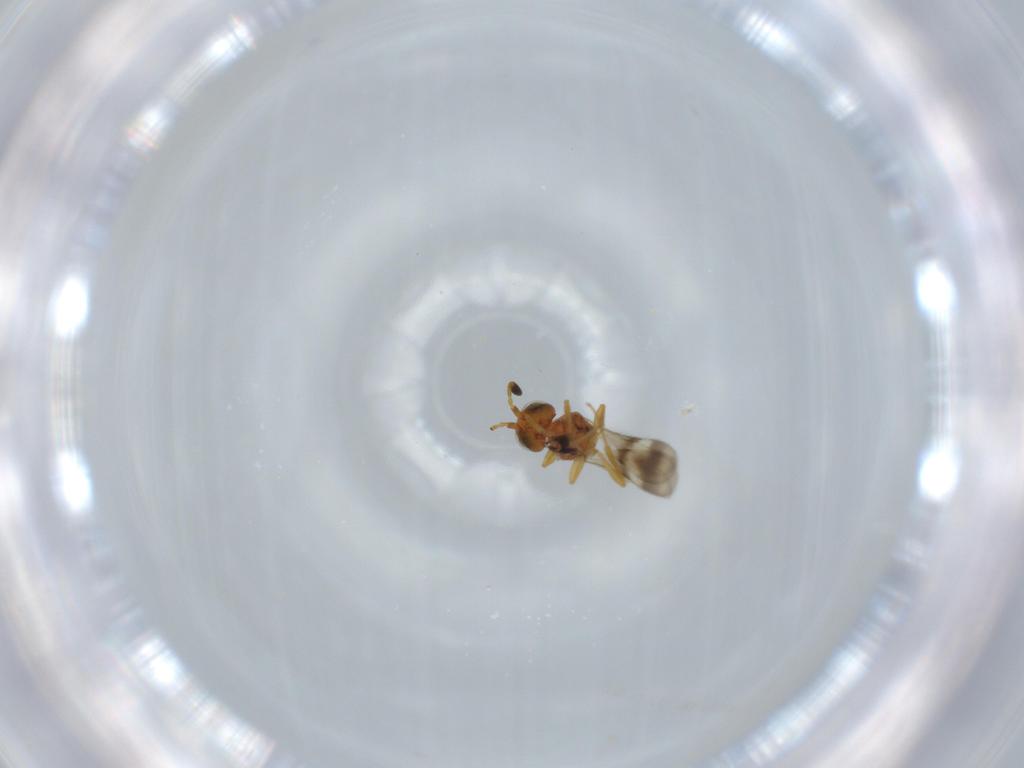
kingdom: Animalia
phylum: Arthropoda
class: Insecta
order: Hymenoptera
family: Scelionidae
